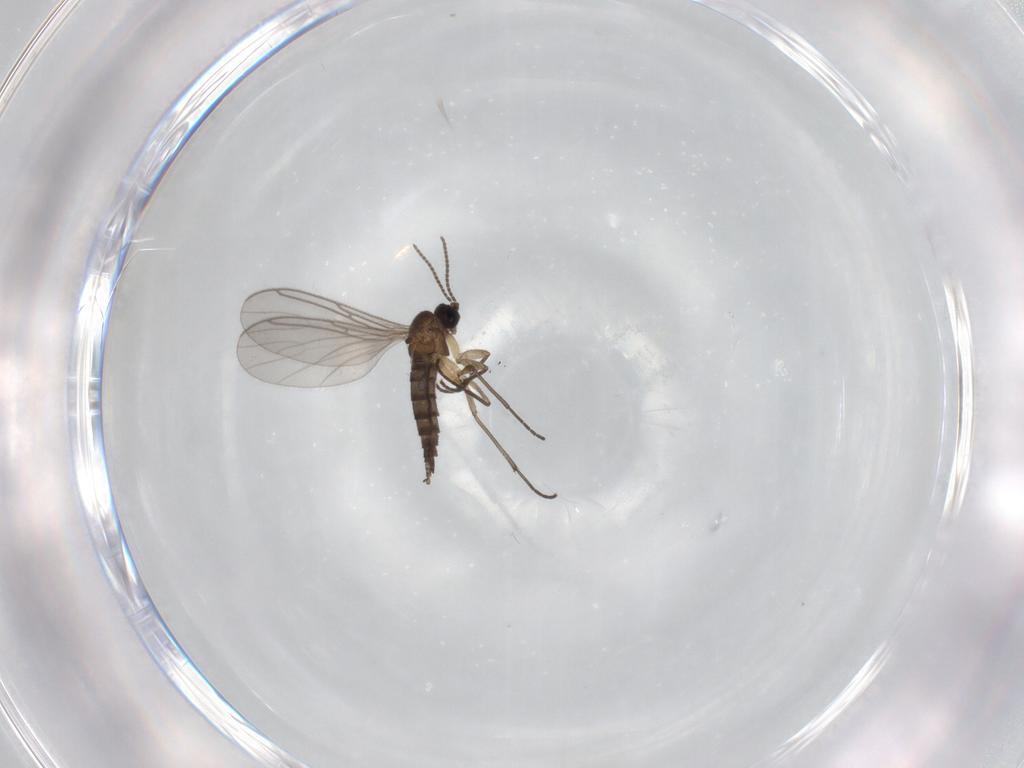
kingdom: Animalia
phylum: Arthropoda
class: Insecta
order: Diptera
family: Sciaridae
